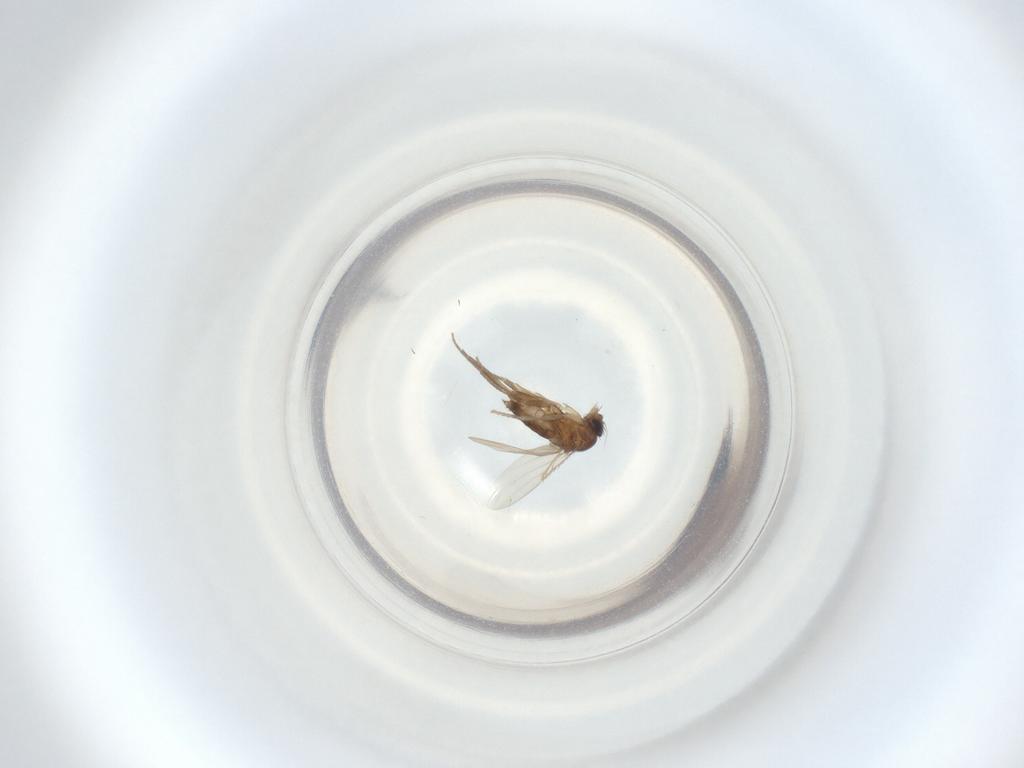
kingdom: Animalia
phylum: Arthropoda
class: Insecta
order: Diptera
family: Phoridae
